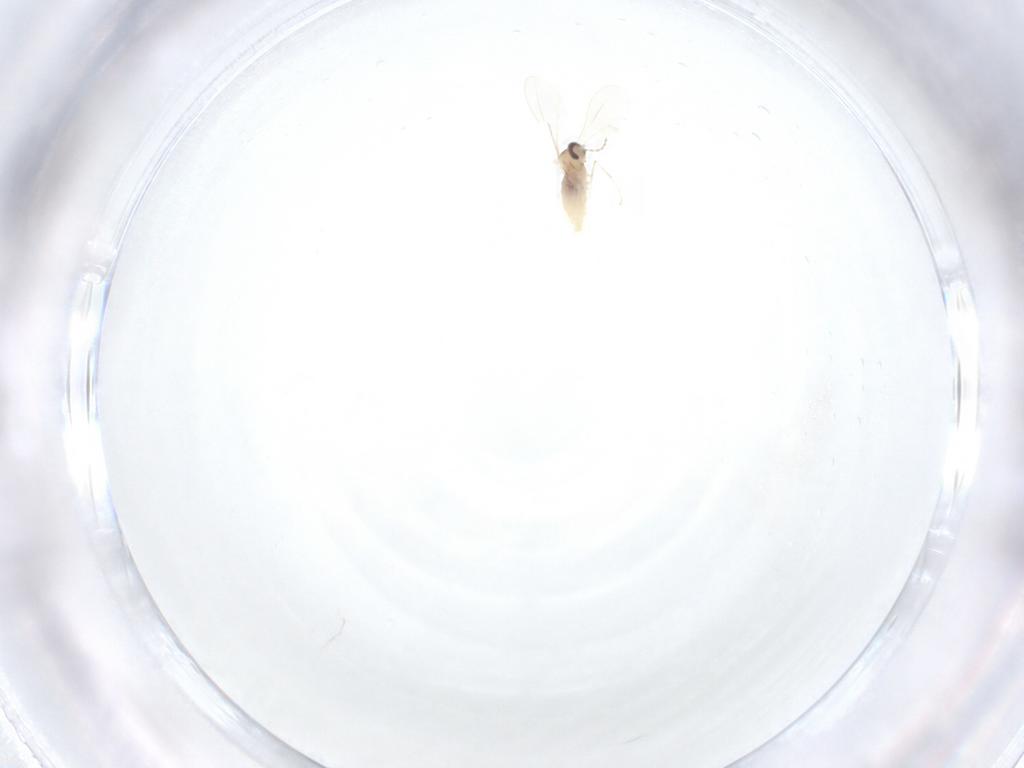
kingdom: Animalia
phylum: Arthropoda
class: Insecta
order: Diptera
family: Cecidomyiidae
